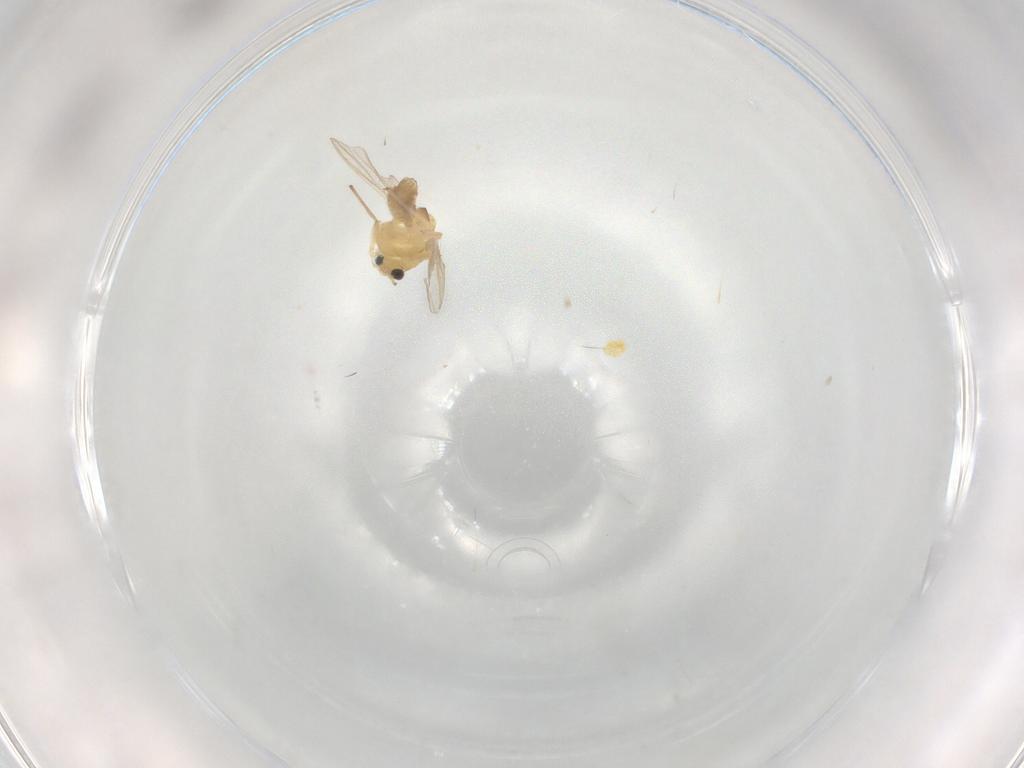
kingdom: Animalia
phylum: Arthropoda
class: Insecta
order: Diptera
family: Chironomidae
